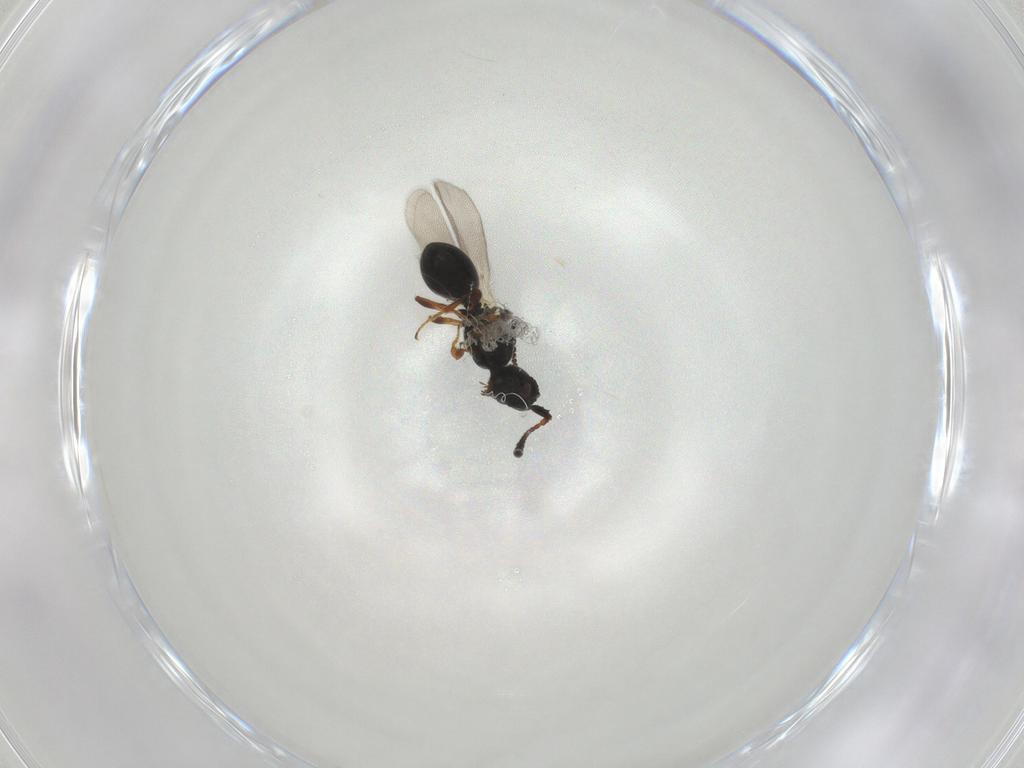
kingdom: Animalia
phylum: Arthropoda
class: Insecta
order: Hymenoptera
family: Diapriidae
